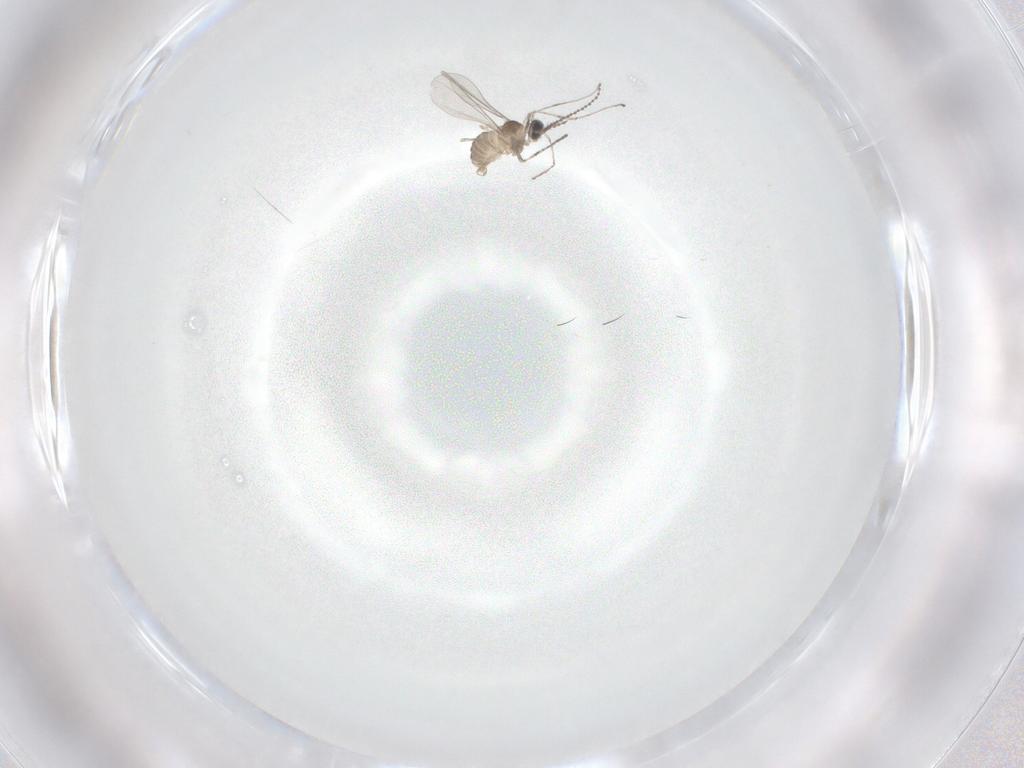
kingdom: Animalia
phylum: Arthropoda
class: Insecta
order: Diptera
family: Cecidomyiidae
